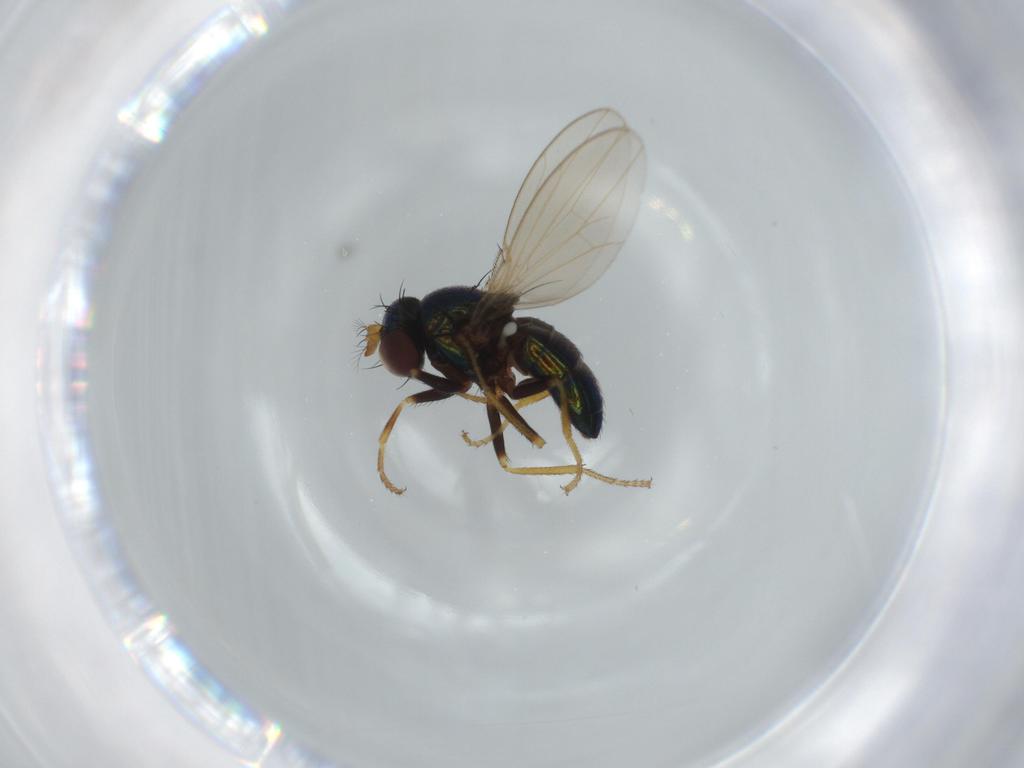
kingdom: Animalia
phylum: Arthropoda
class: Insecta
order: Diptera
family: Ephydridae
